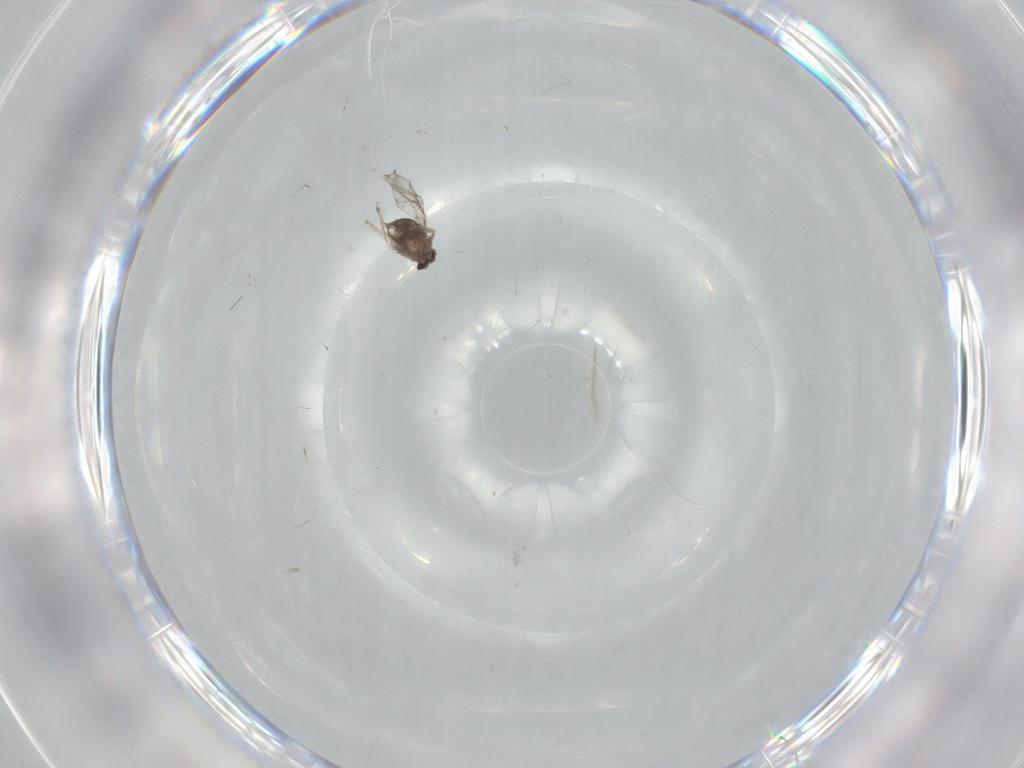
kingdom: Animalia
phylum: Arthropoda
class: Insecta
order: Diptera
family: Cecidomyiidae
